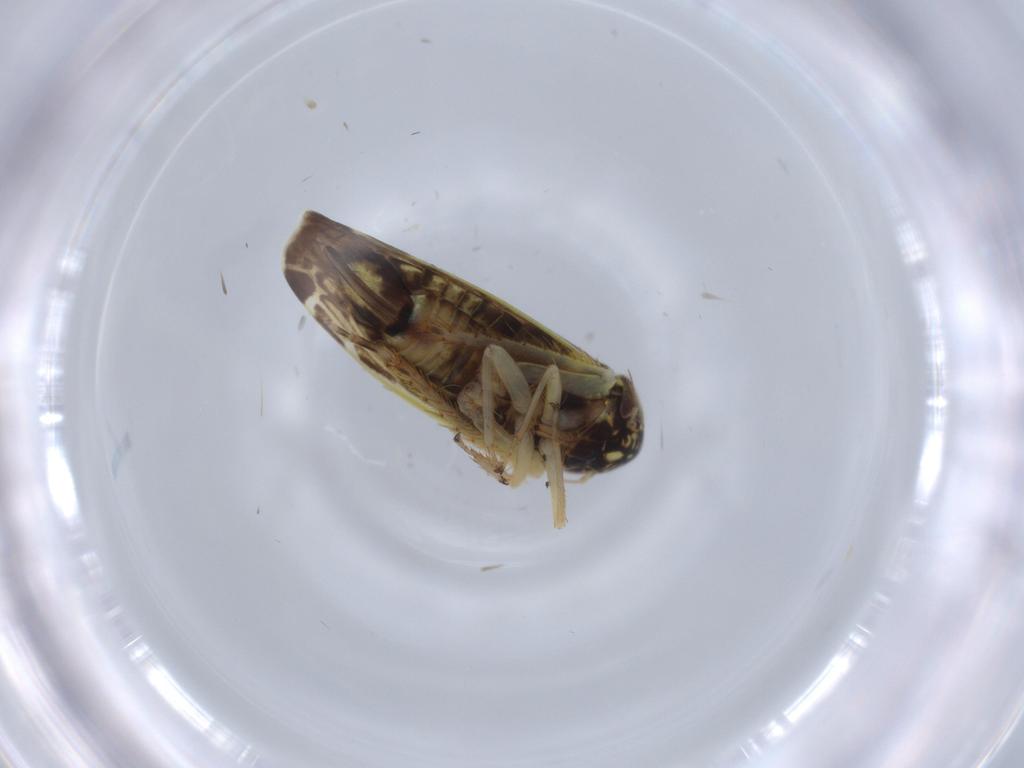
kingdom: Animalia
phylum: Arthropoda
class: Insecta
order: Hemiptera
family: Cicadellidae
